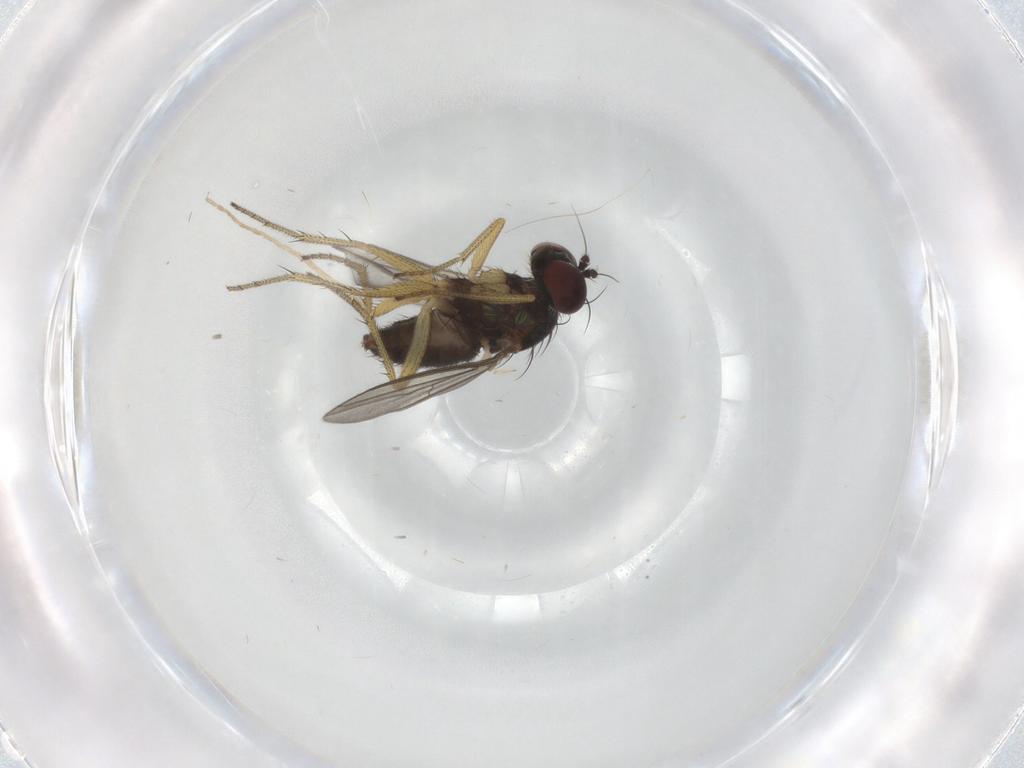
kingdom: Animalia
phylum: Arthropoda
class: Insecta
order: Diptera
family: Dolichopodidae
